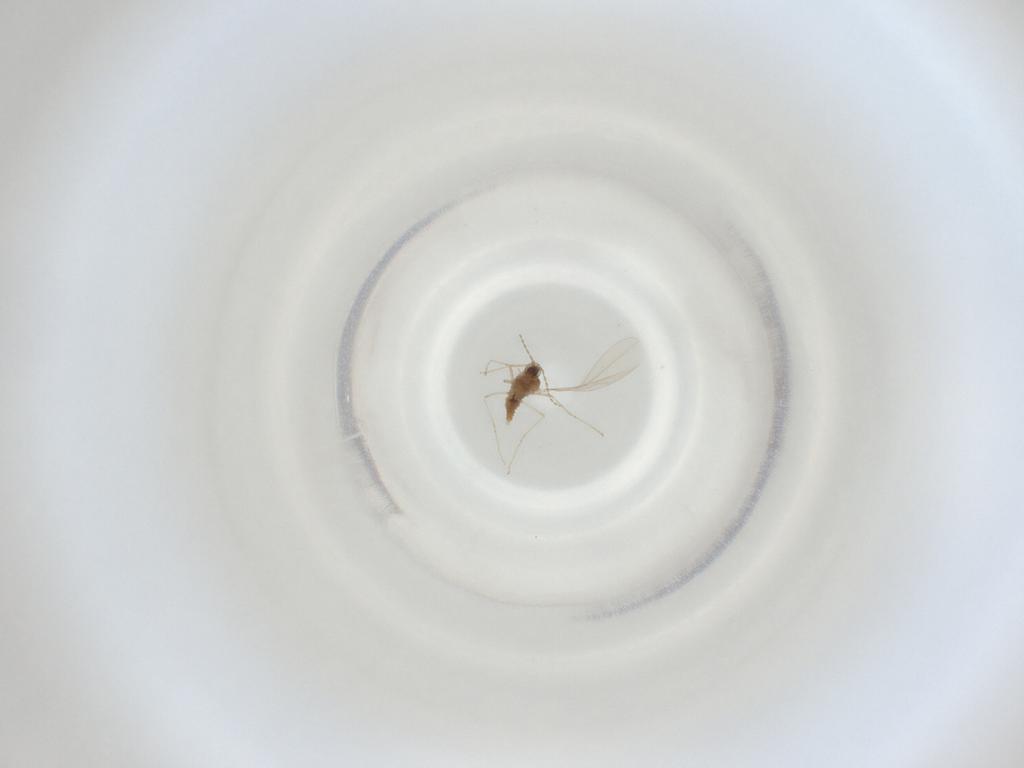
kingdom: Animalia
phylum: Arthropoda
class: Insecta
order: Diptera
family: Cecidomyiidae
